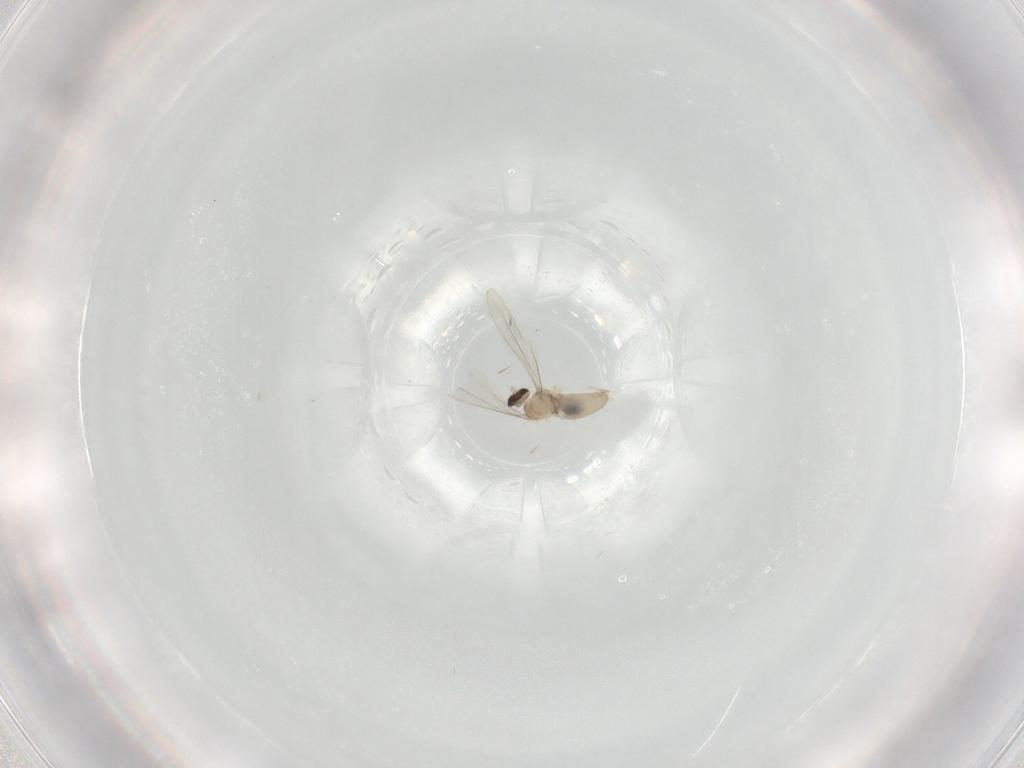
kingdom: Animalia
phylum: Arthropoda
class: Insecta
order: Diptera
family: Cecidomyiidae
